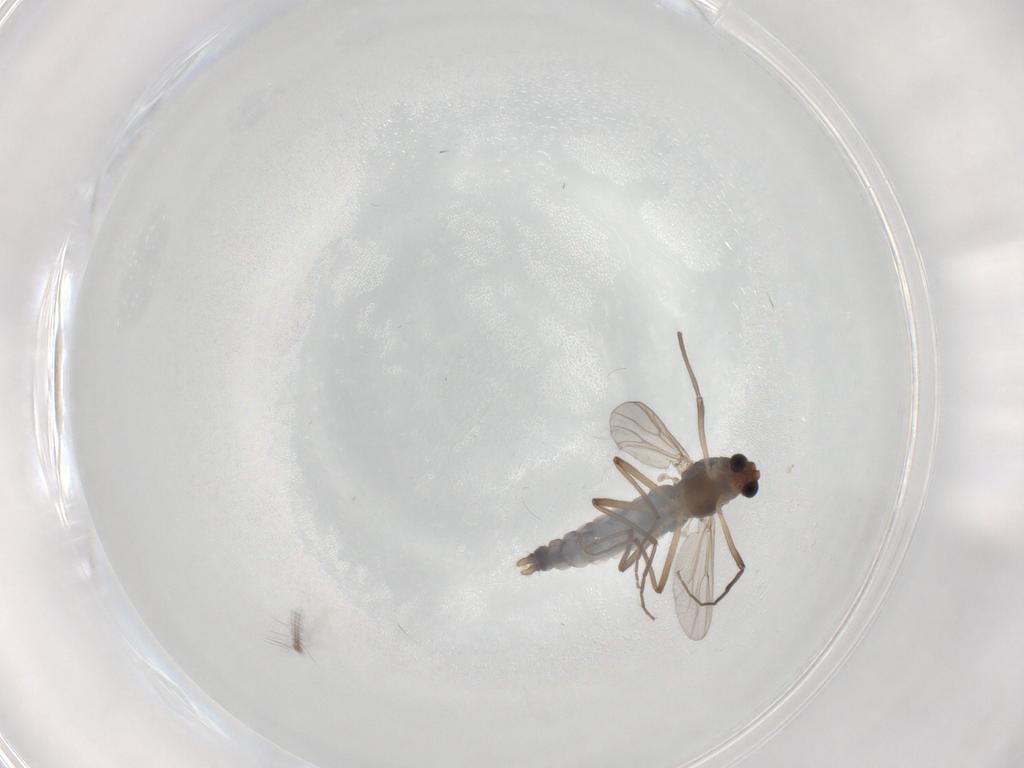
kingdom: Animalia
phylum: Arthropoda
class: Insecta
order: Diptera
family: Chironomidae
